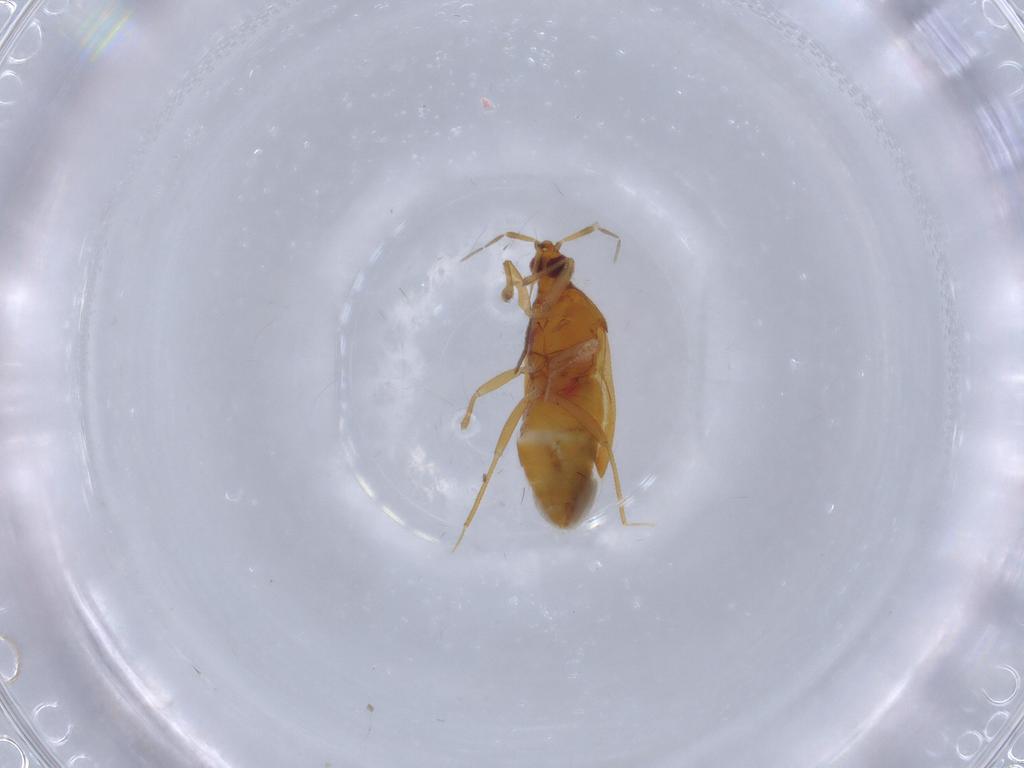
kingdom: Animalia
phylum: Arthropoda
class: Insecta
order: Hemiptera
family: Anthocoridae
